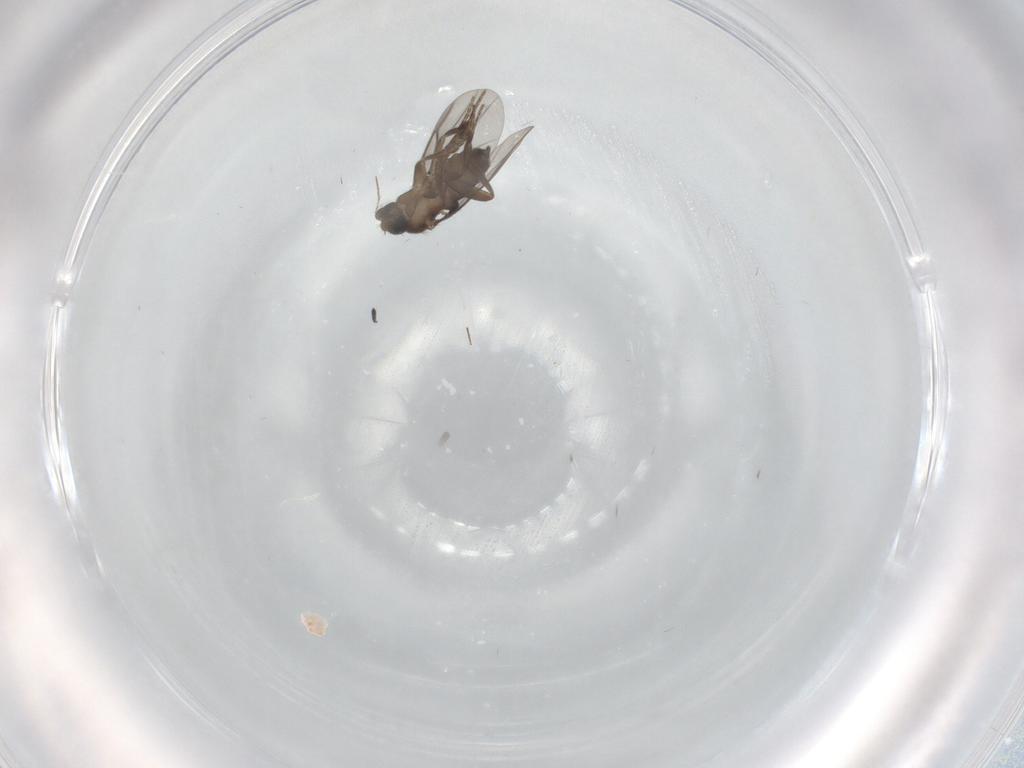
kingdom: Animalia
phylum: Arthropoda
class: Insecta
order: Diptera
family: Phoridae
